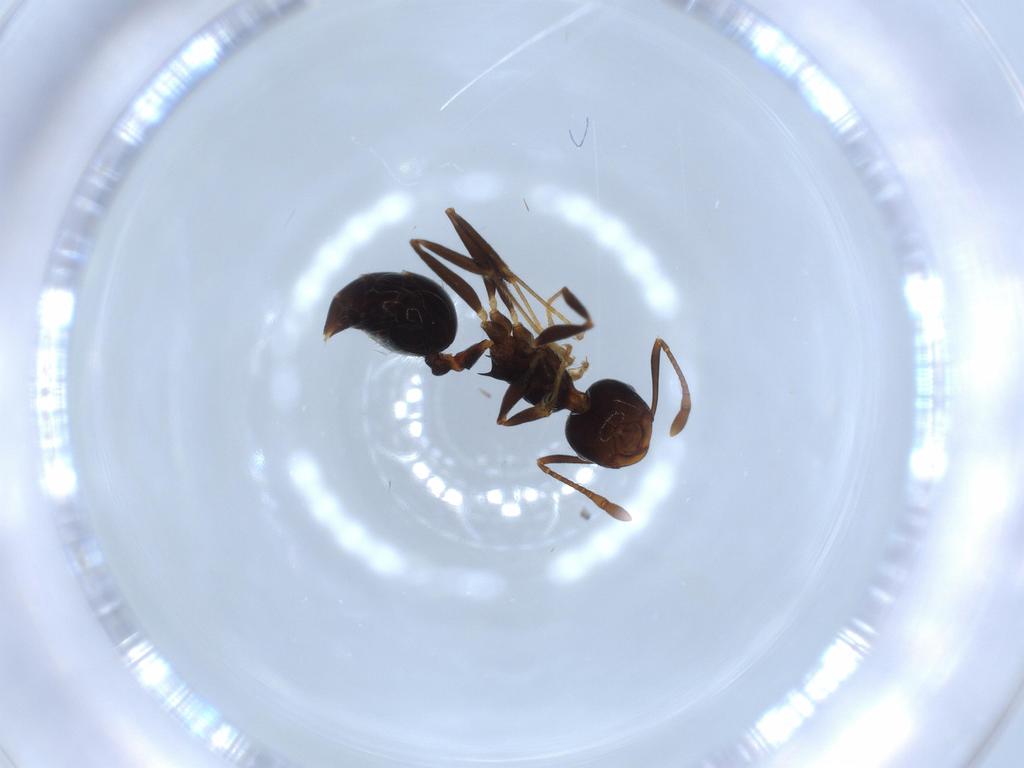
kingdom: Animalia
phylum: Arthropoda
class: Insecta
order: Hymenoptera
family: Formicidae
